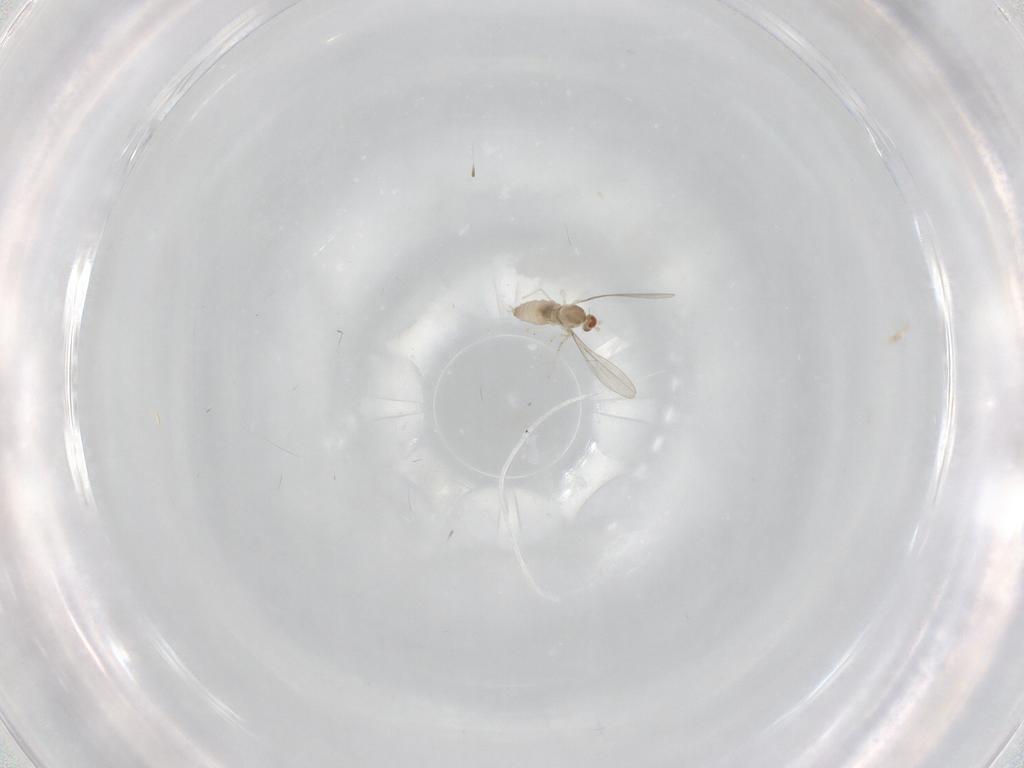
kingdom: Animalia
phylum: Arthropoda
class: Insecta
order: Diptera
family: Cecidomyiidae
